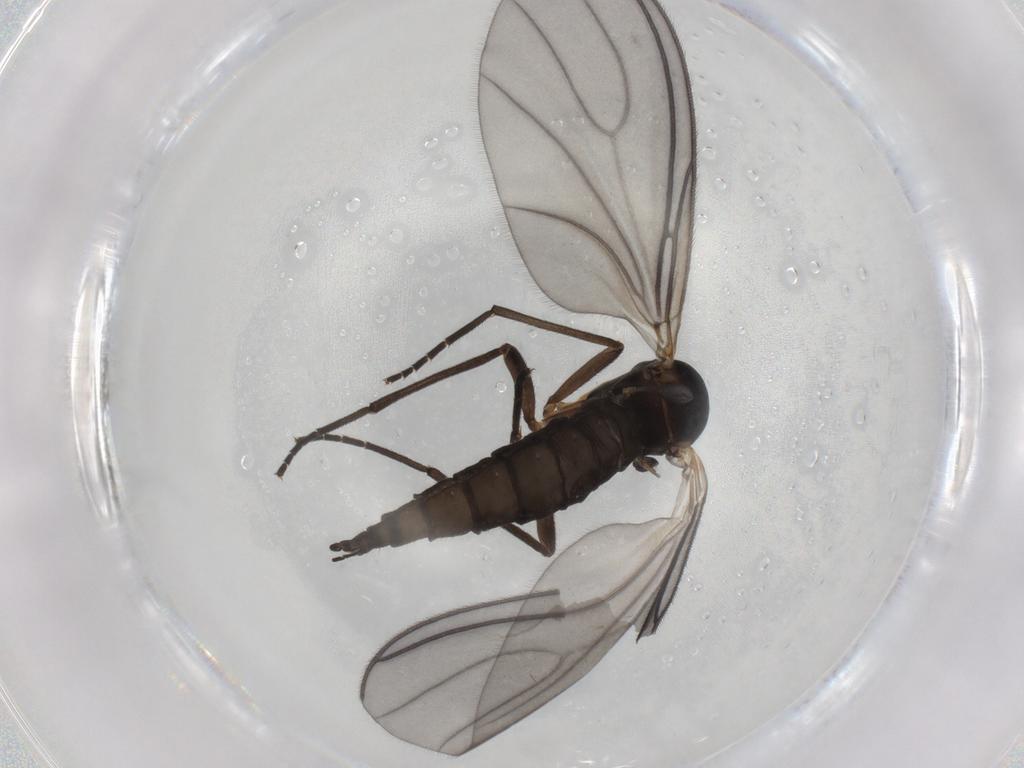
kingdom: Animalia
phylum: Arthropoda
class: Insecta
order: Diptera
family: Sciaridae
